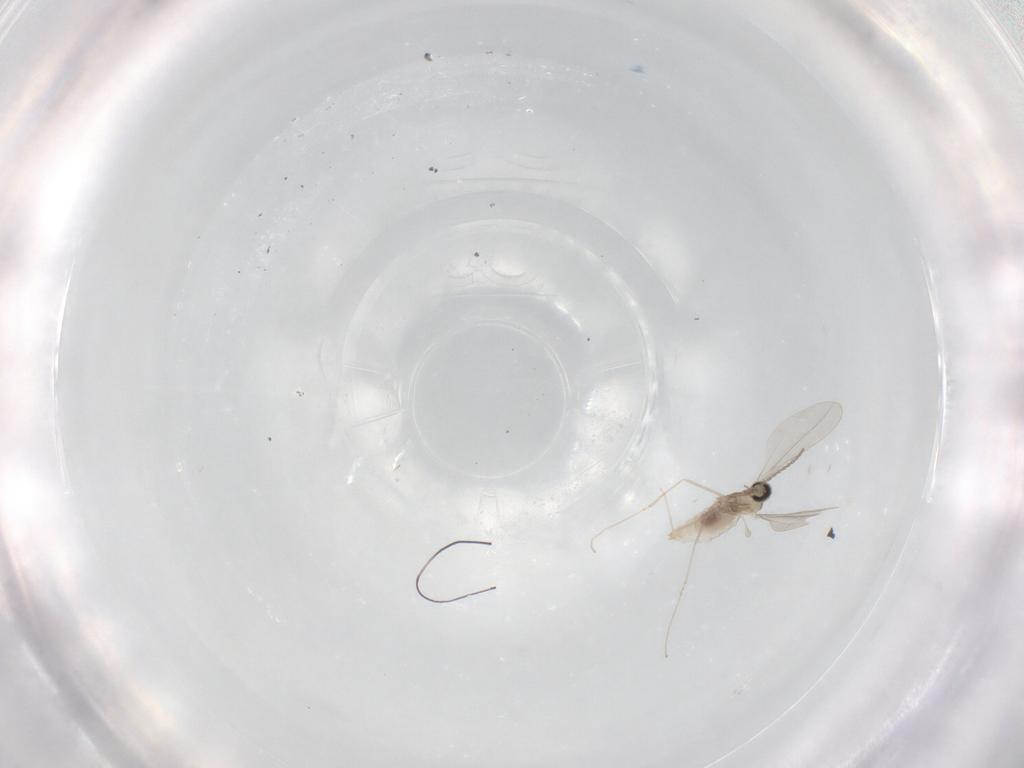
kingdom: Animalia
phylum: Arthropoda
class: Insecta
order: Diptera
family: Cecidomyiidae
